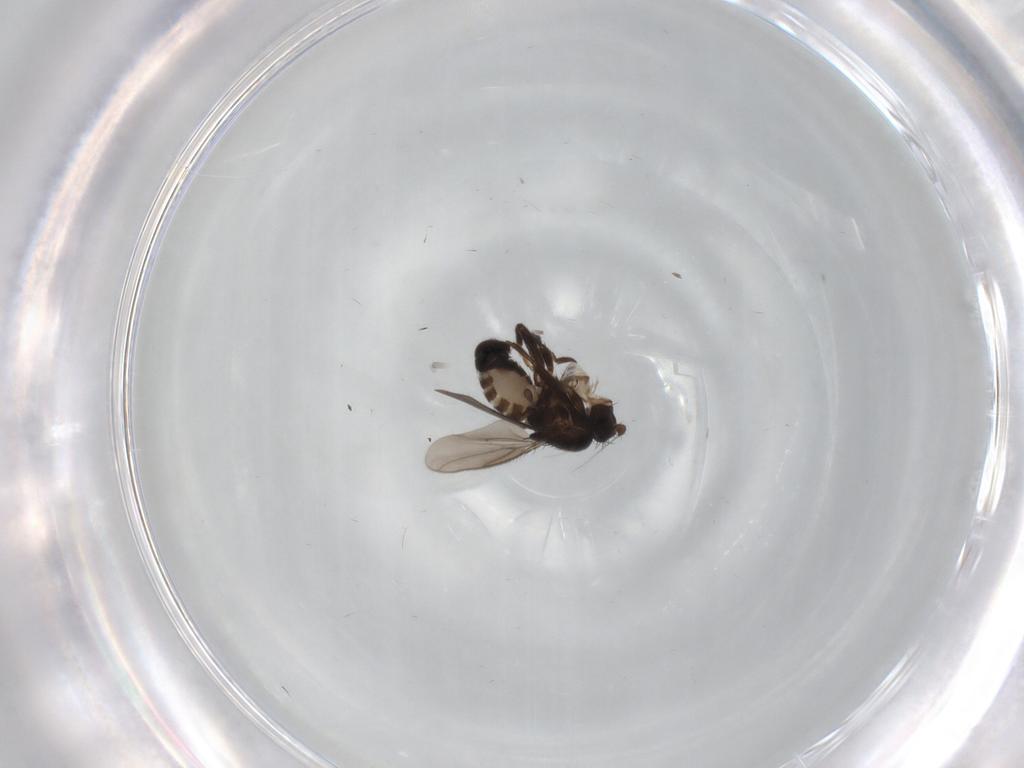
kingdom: Animalia
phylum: Arthropoda
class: Insecta
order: Diptera
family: Sphaeroceridae
